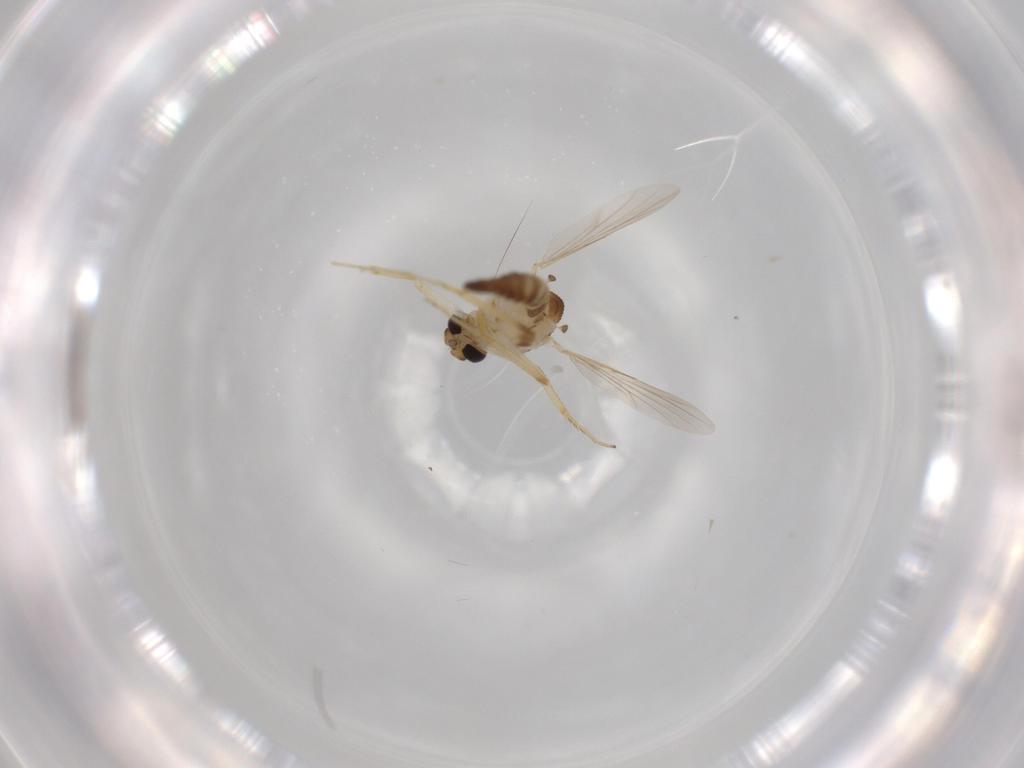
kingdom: Animalia
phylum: Arthropoda
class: Insecta
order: Diptera
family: Ceratopogonidae
